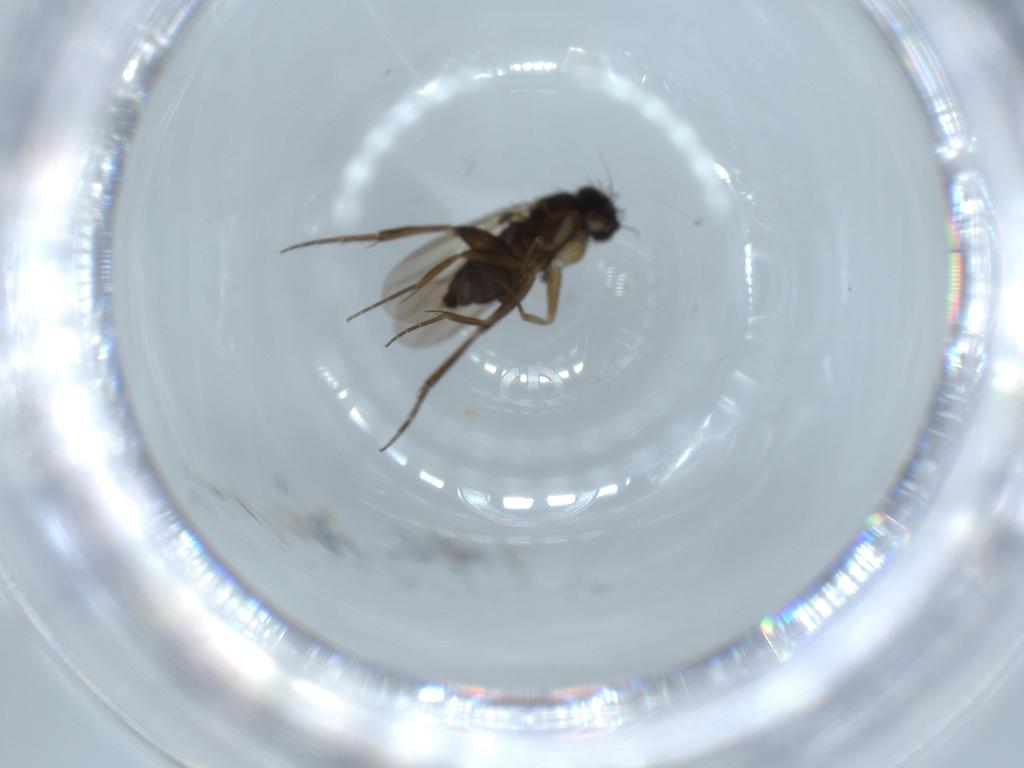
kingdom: Animalia
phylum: Arthropoda
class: Insecta
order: Diptera
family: Phoridae
